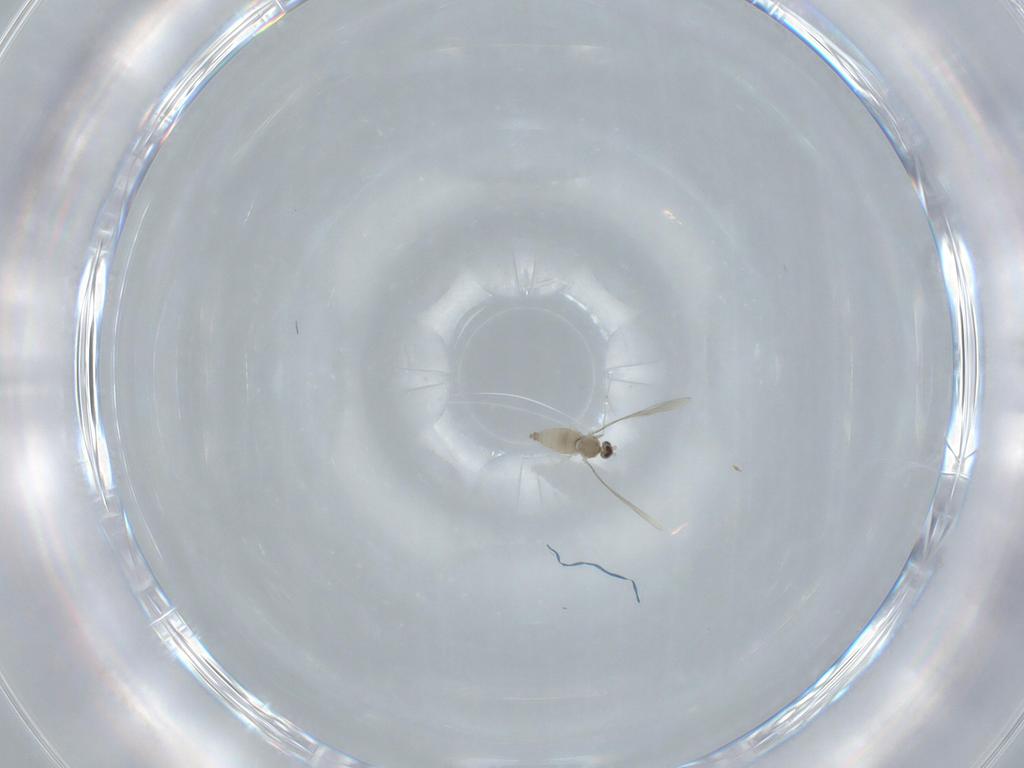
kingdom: Animalia
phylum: Arthropoda
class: Insecta
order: Diptera
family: Cecidomyiidae
